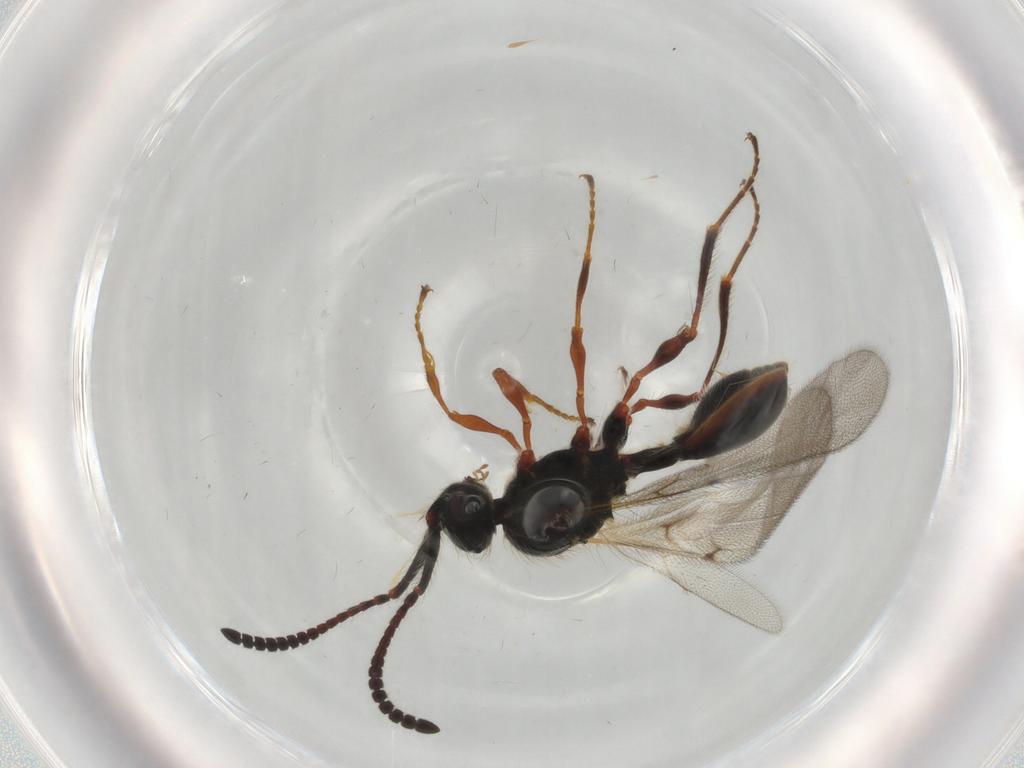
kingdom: Animalia
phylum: Arthropoda
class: Insecta
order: Hymenoptera
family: Diapriidae
